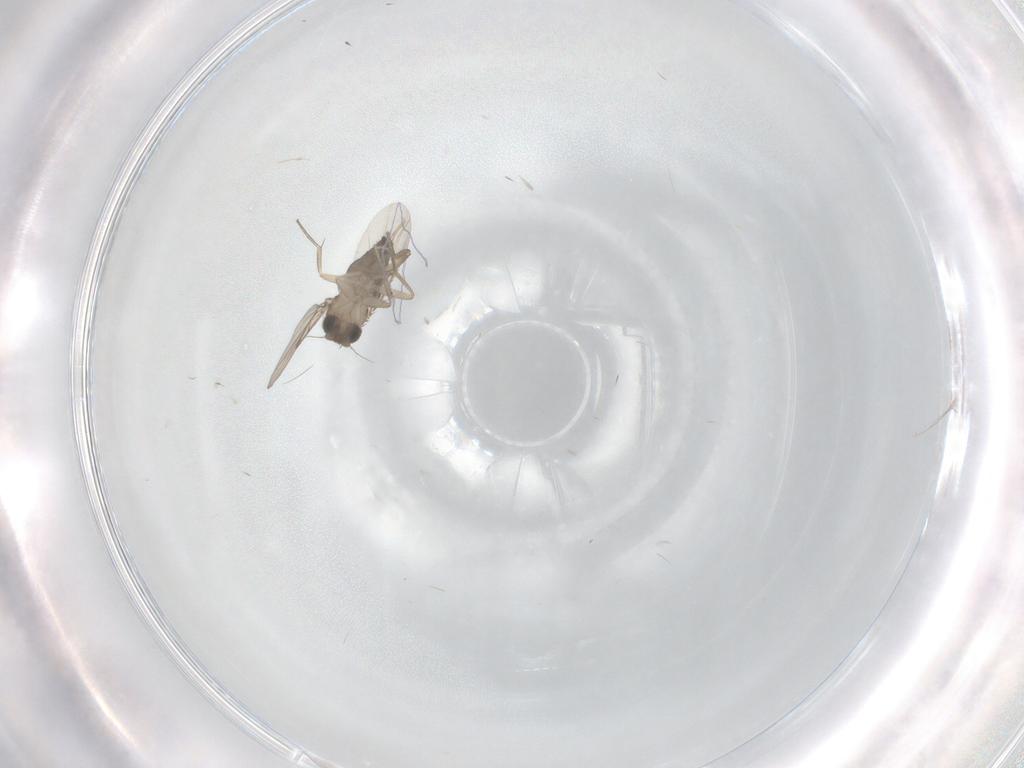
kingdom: Animalia
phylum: Arthropoda
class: Insecta
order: Diptera
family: Phoridae
